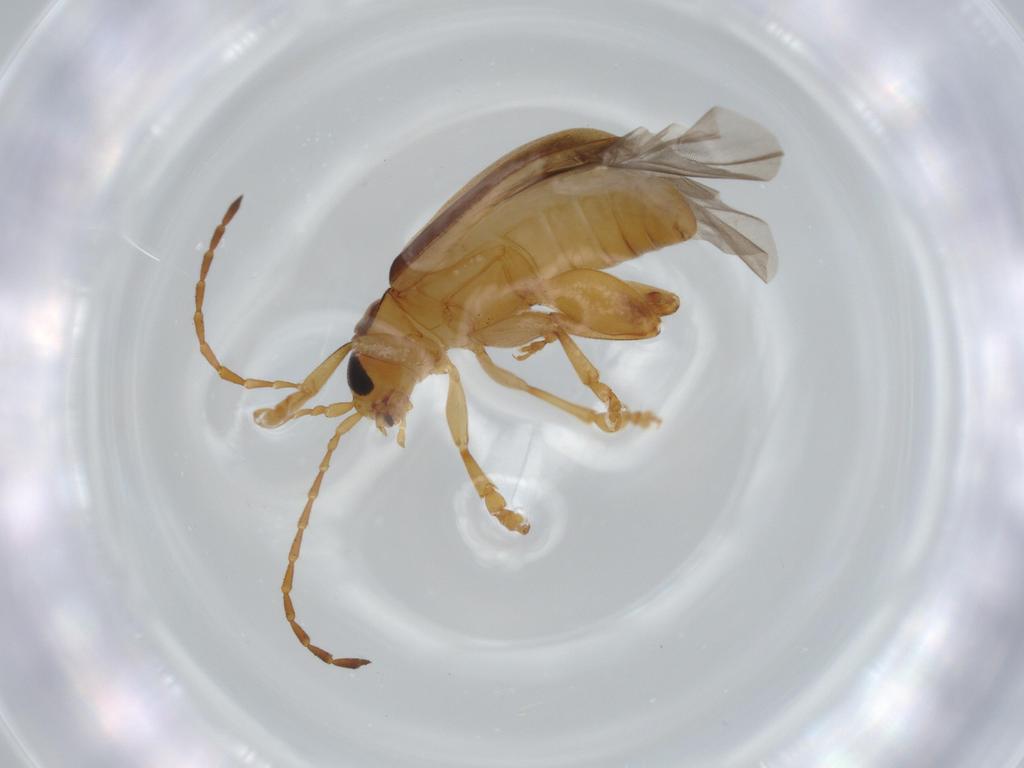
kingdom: Animalia
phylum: Arthropoda
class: Insecta
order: Coleoptera
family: Chrysomelidae
